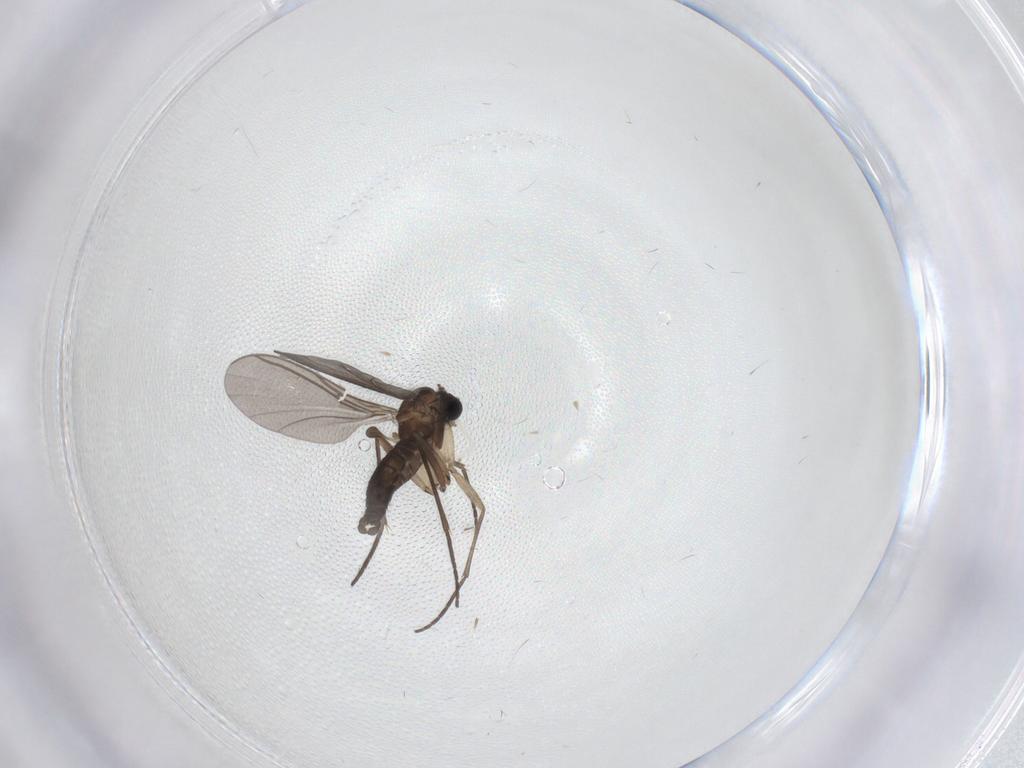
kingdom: Animalia
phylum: Arthropoda
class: Insecta
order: Diptera
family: Sciaridae
